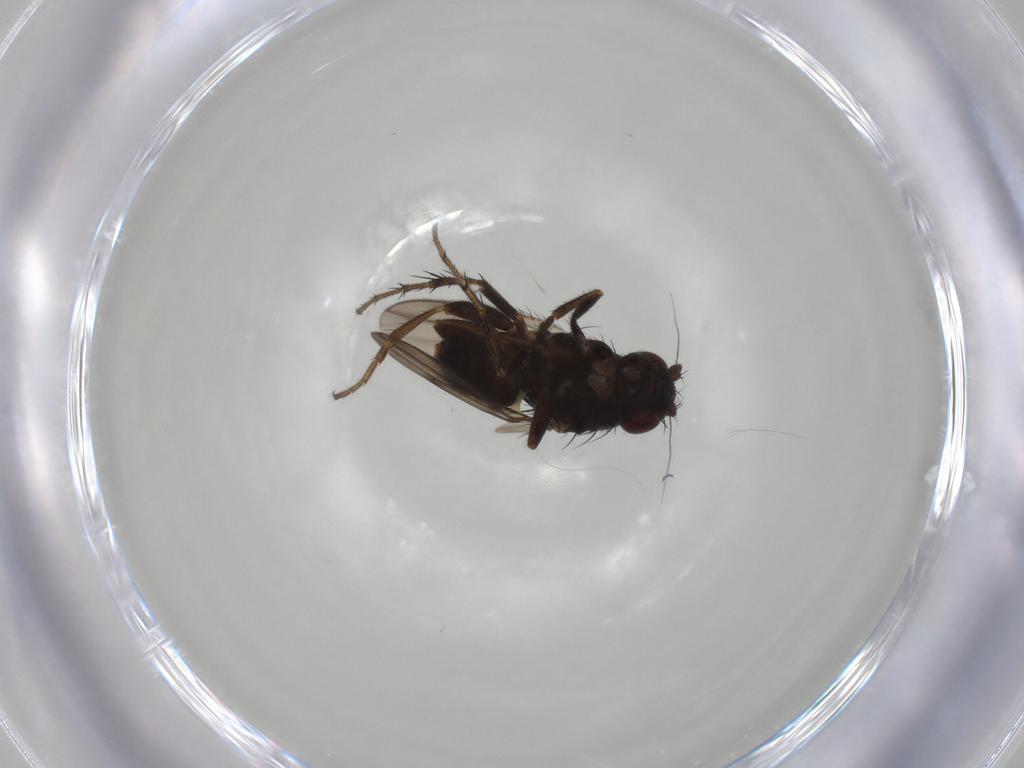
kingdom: Animalia
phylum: Arthropoda
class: Insecta
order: Diptera
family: Sphaeroceridae
